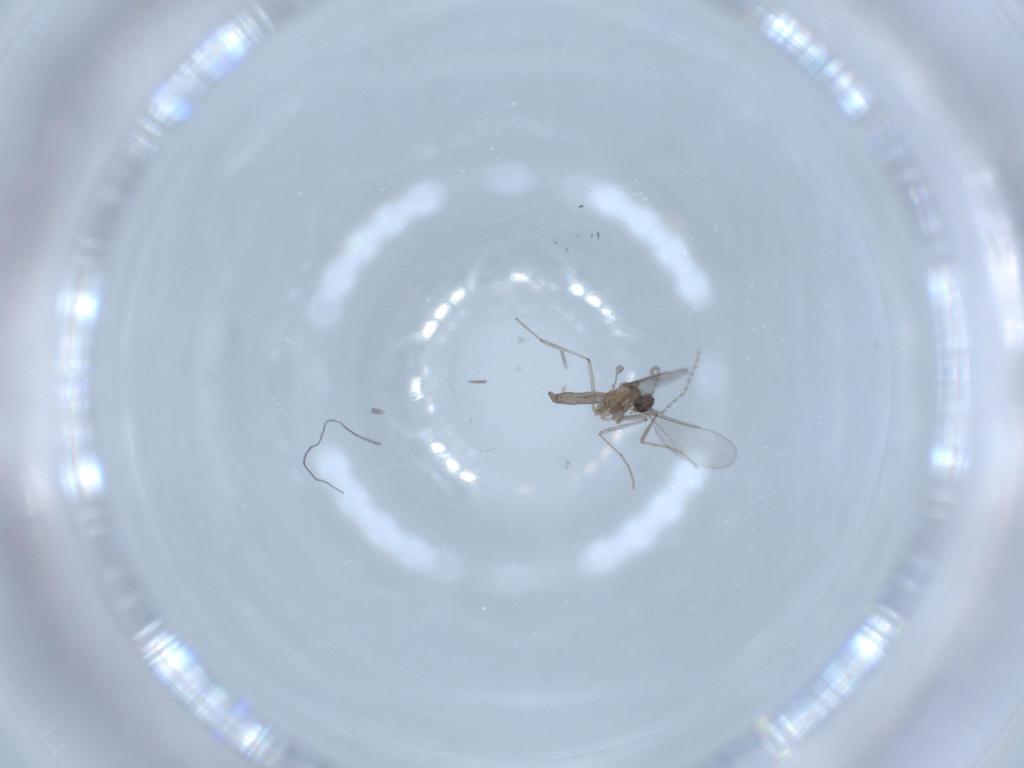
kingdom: Animalia
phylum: Arthropoda
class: Insecta
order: Diptera
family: Cecidomyiidae
